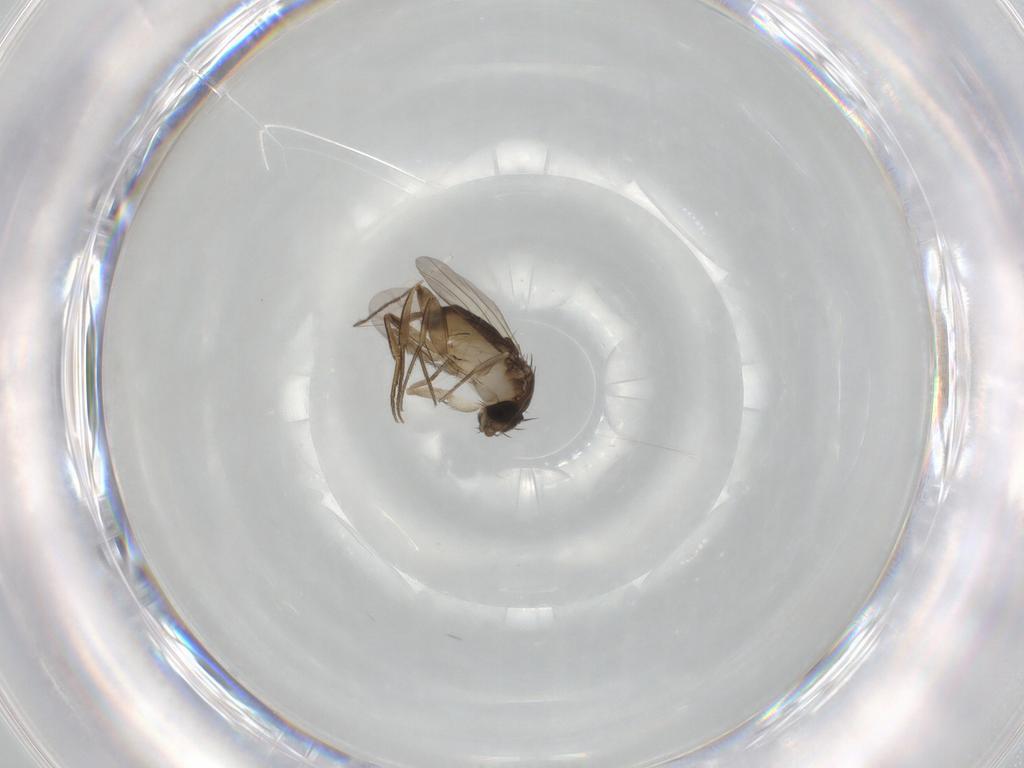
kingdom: Animalia
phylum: Arthropoda
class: Insecta
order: Diptera
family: Phoridae
